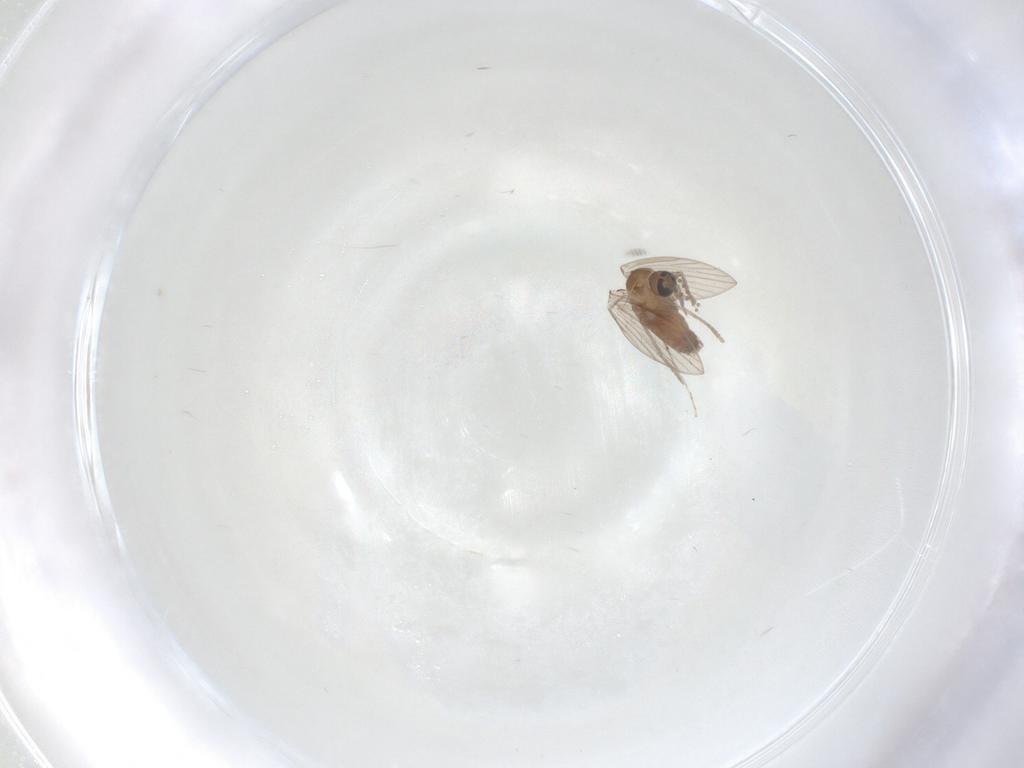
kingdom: Animalia
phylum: Arthropoda
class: Insecta
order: Diptera
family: Psychodidae
